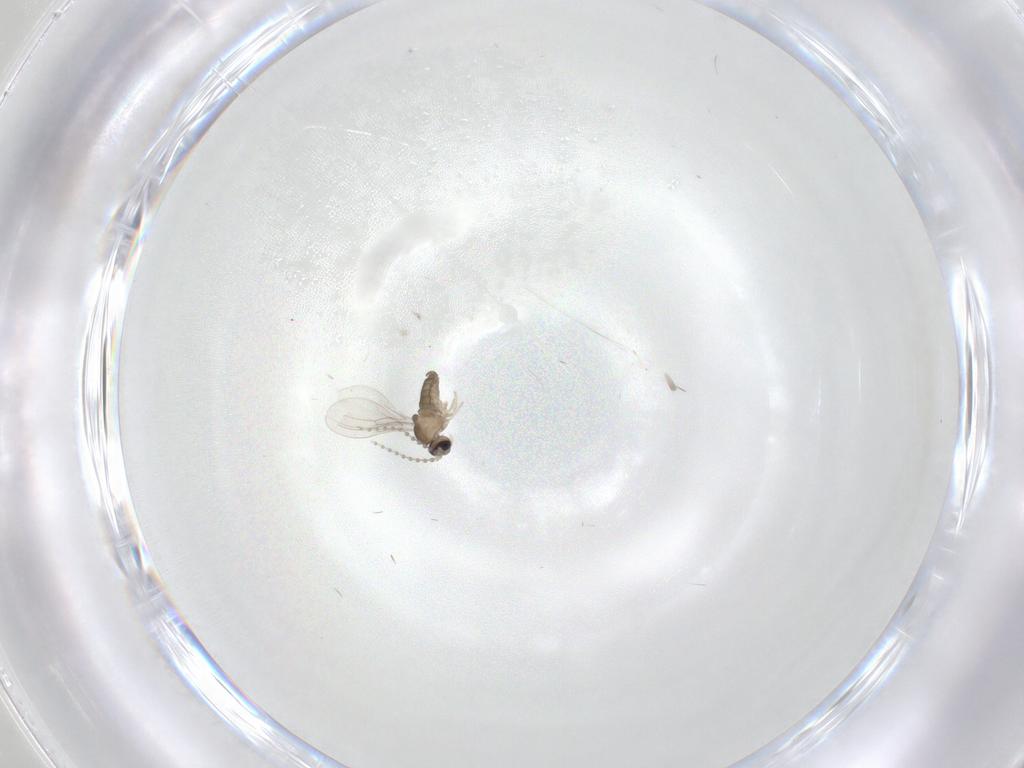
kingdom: Animalia
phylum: Arthropoda
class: Insecta
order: Diptera
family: Cecidomyiidae
